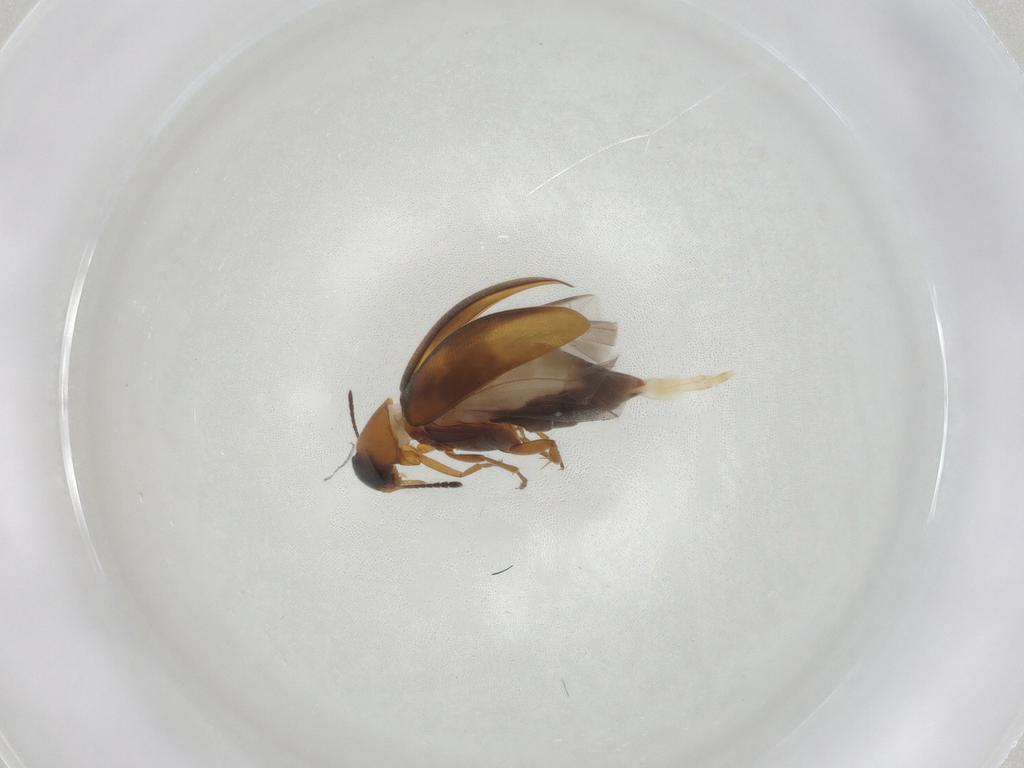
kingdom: Animalia
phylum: Arthropoda
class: Insecta
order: Coleoptera
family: Scraptiidae
